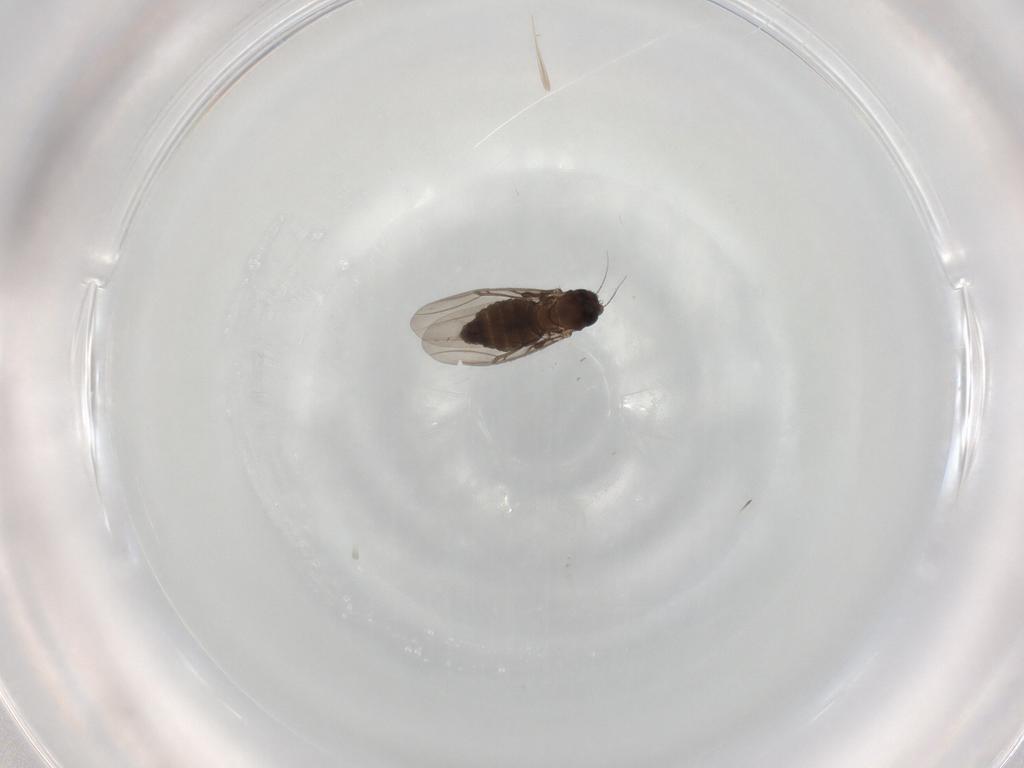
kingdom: Animalia
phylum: Arthropoda
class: Insecta
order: Diptera
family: Phoridae
